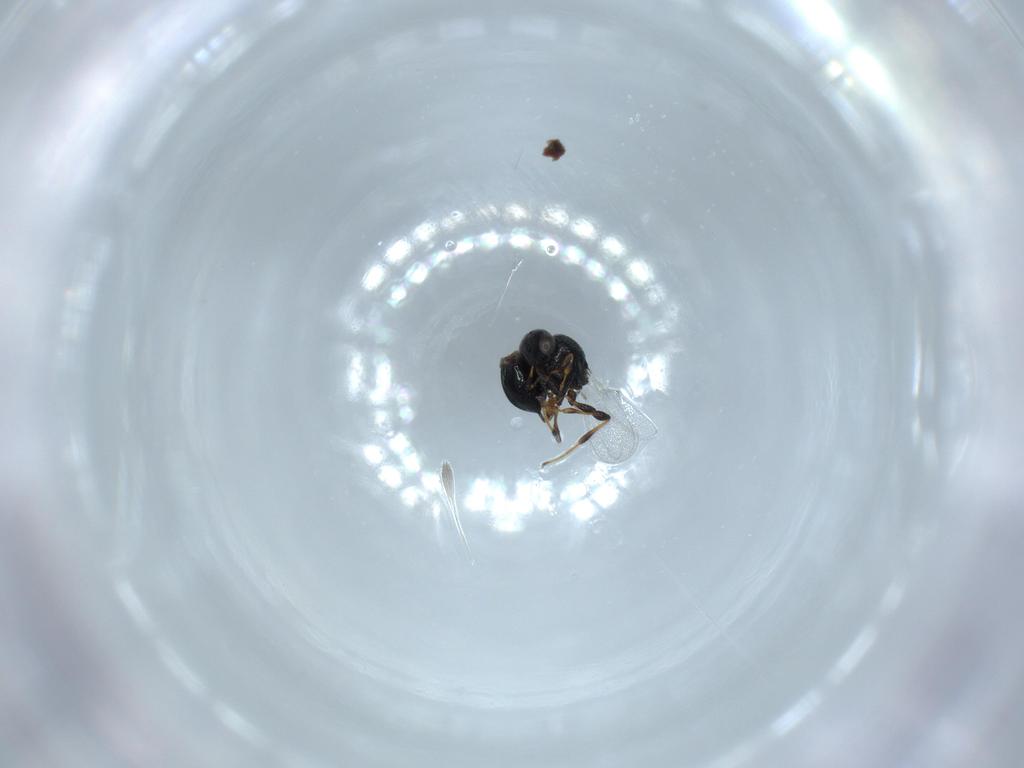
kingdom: Animalia
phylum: Arthropoda
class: Insecta
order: Hymenoptera
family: Platygastridae
